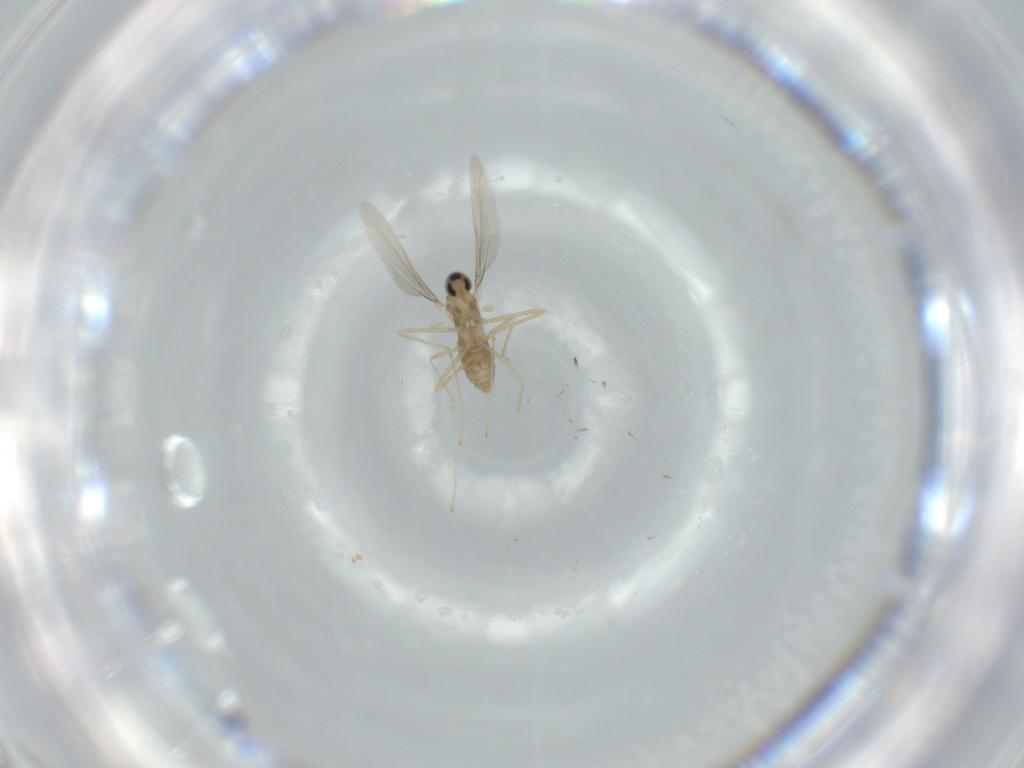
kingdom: Animalia
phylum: Arthropoda
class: Insecta
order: Diptera
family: Cecidomyiidae
